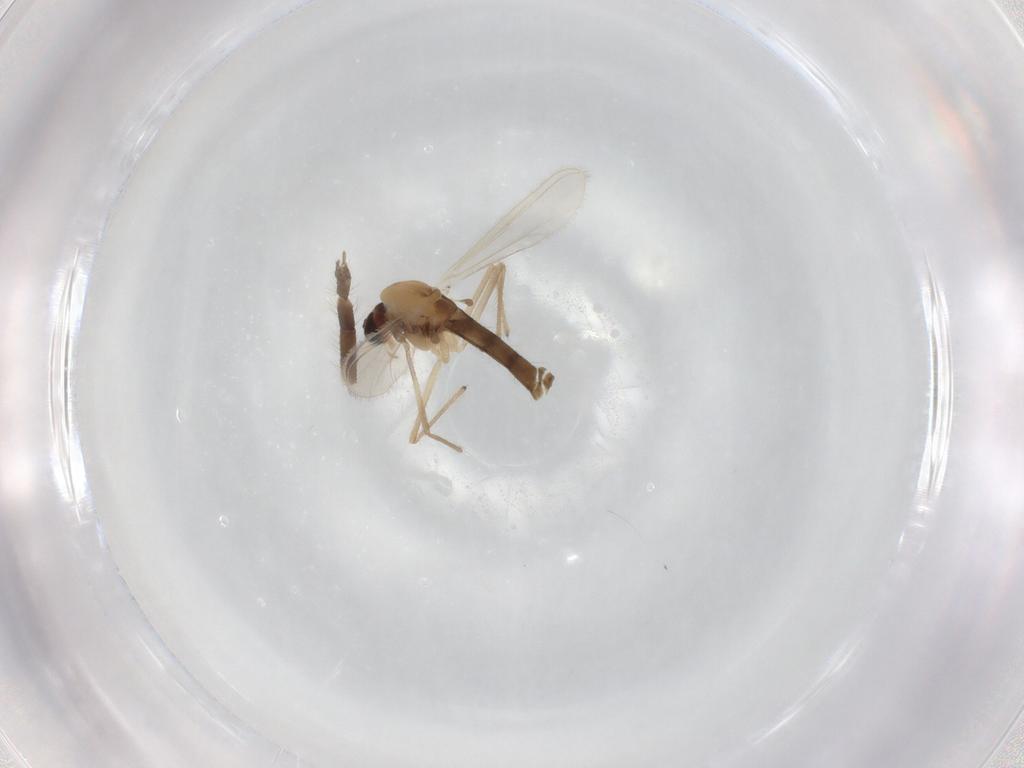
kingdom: Animalia
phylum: Arthropoda
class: Insecta
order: Diptera
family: Chironomidae
